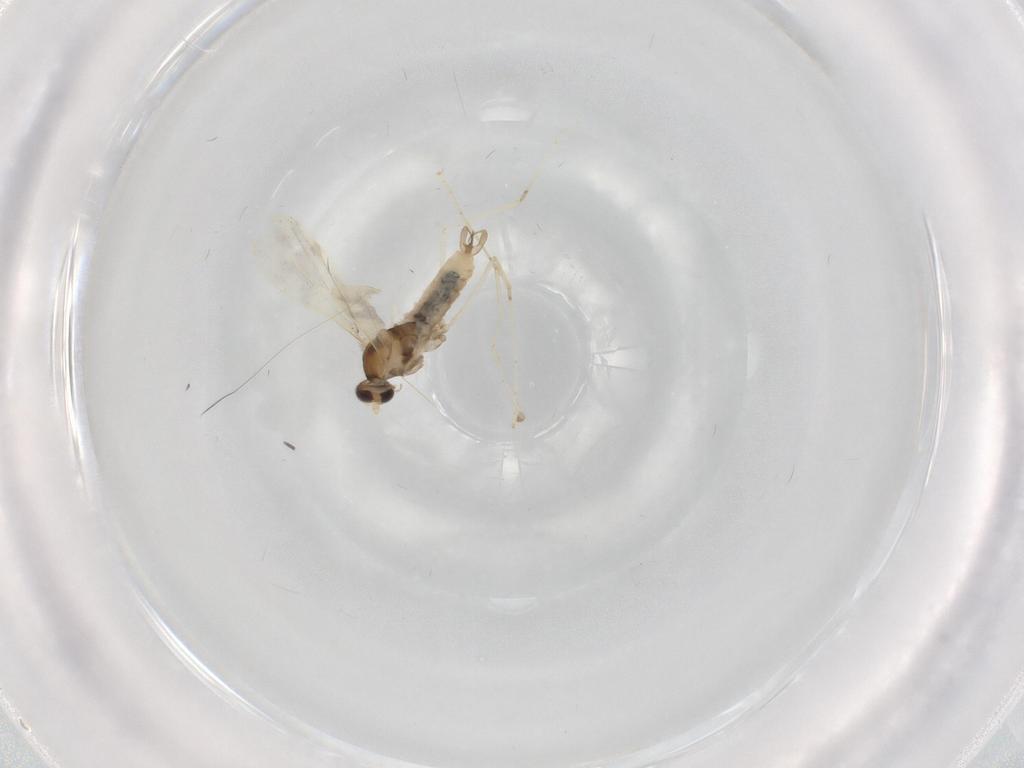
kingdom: Animalia
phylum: Arthropoda
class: Insecta
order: Diptera
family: Cecidomyiidae
